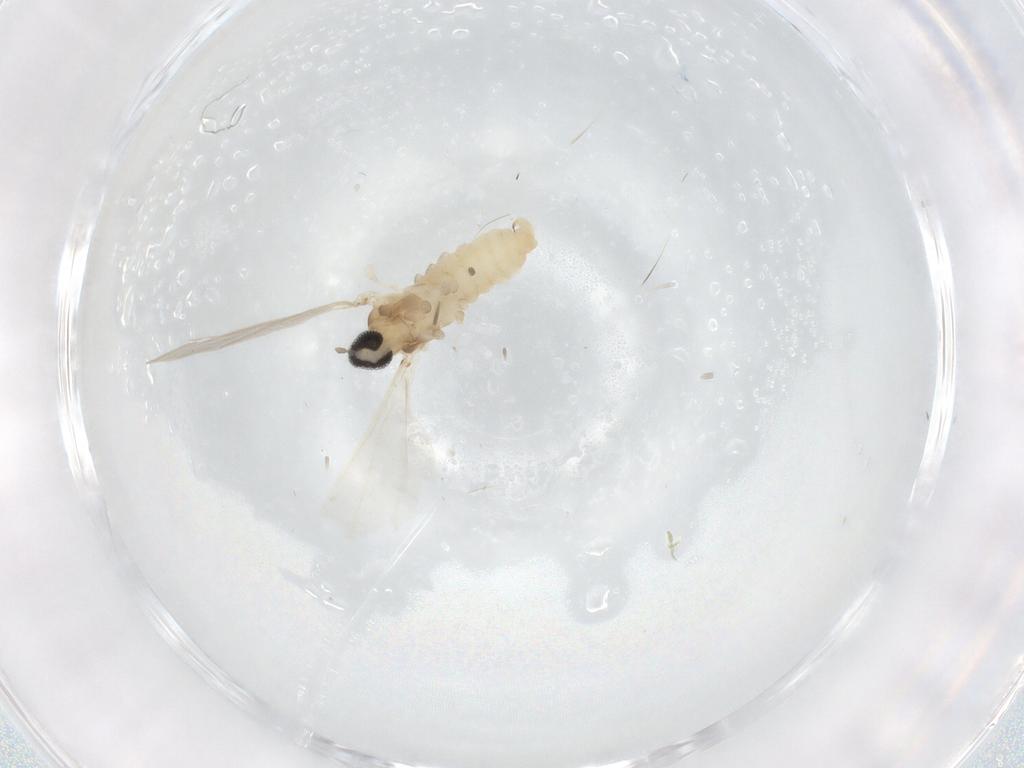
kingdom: Animalia
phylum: Arthropoda
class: Insecta
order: Diptera
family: Cecidomyiidae
